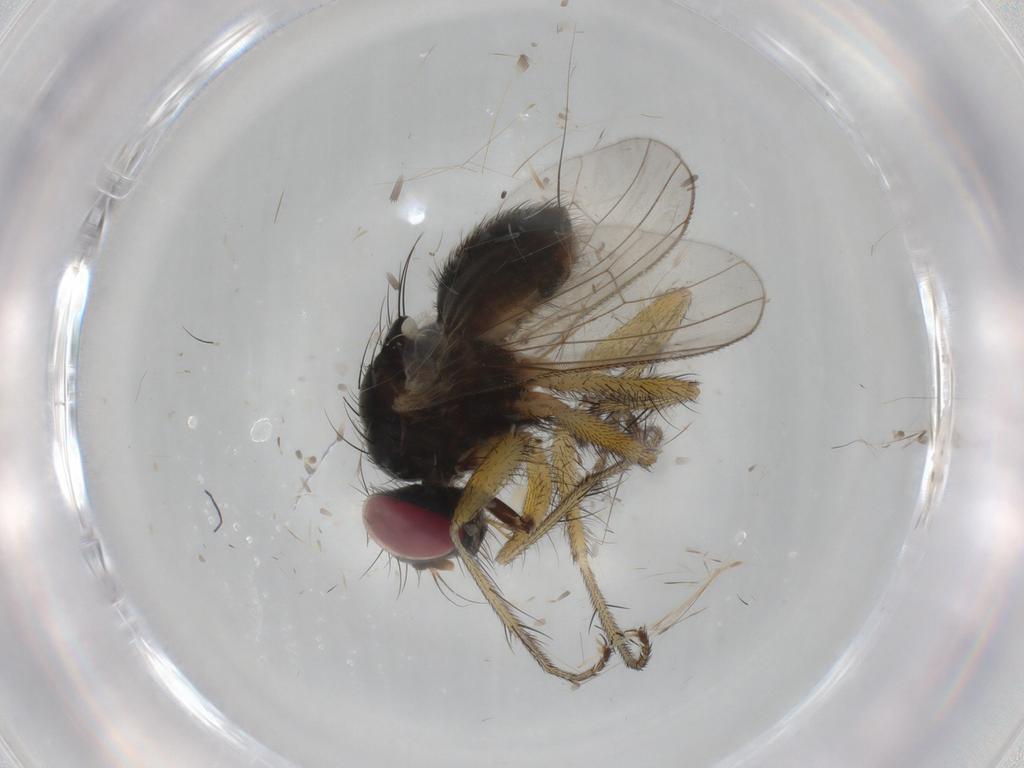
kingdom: Animalia
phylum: Arthropoda
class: Insecta
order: Diptera
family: Muscidae
